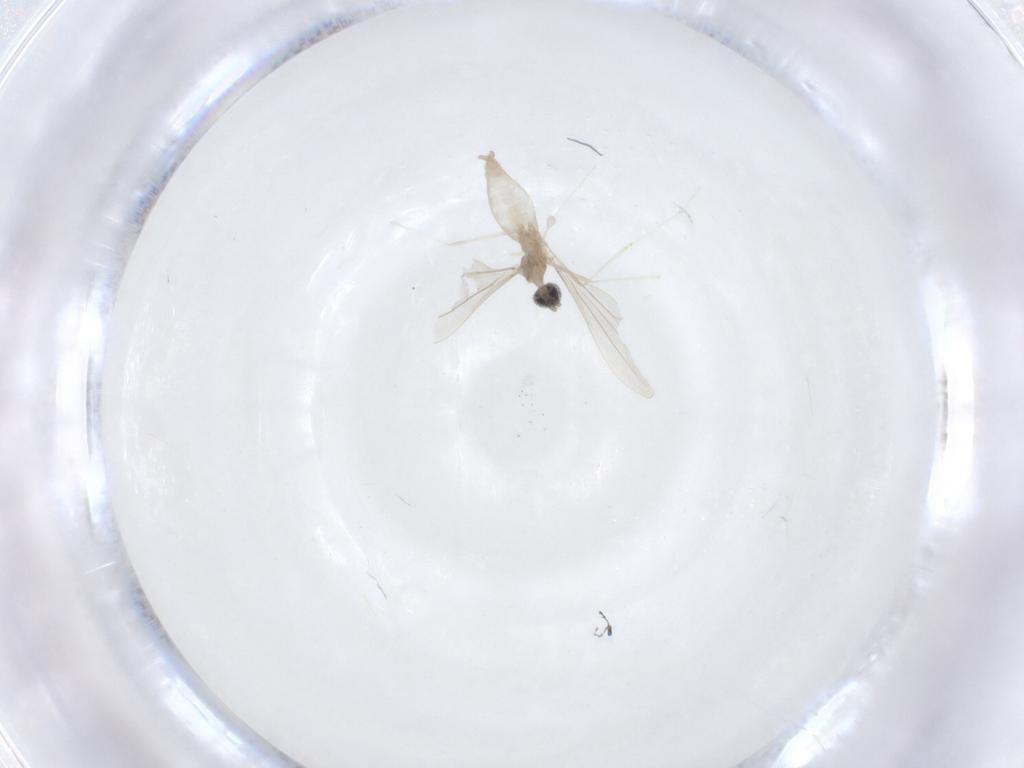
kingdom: Animalia
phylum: Arthropoda
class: Insecta
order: Diptera
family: Cecidomyiidae
